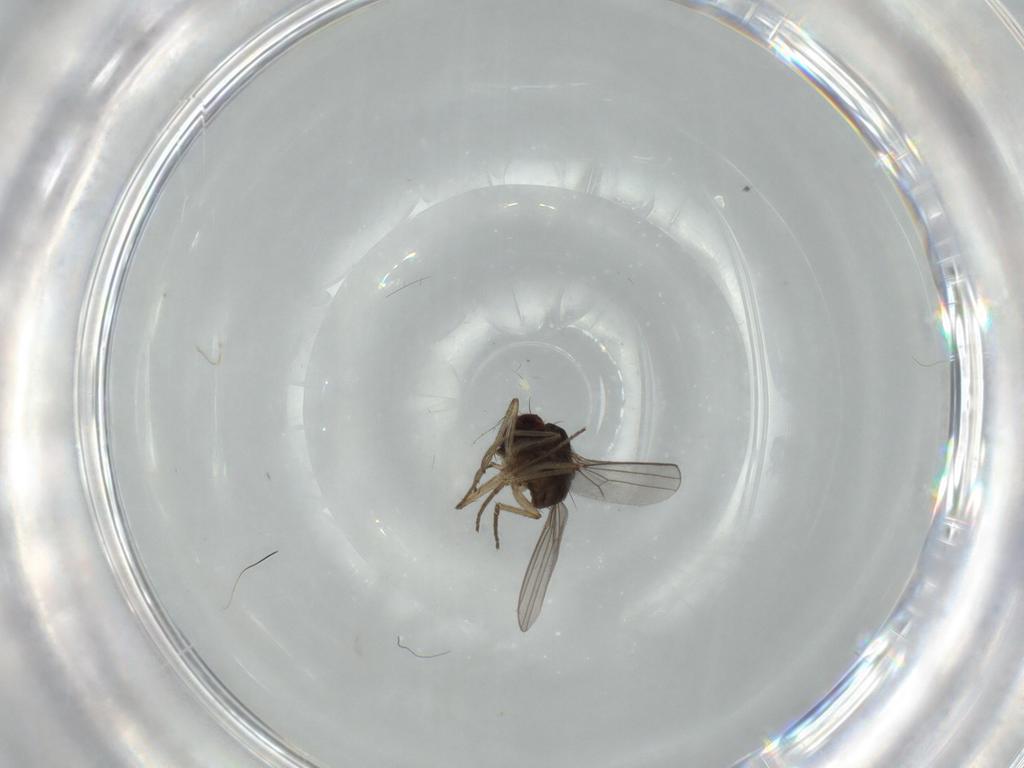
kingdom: Animalia
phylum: Arthropoda
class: Insecta
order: Diptera
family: Dolichopodidae
